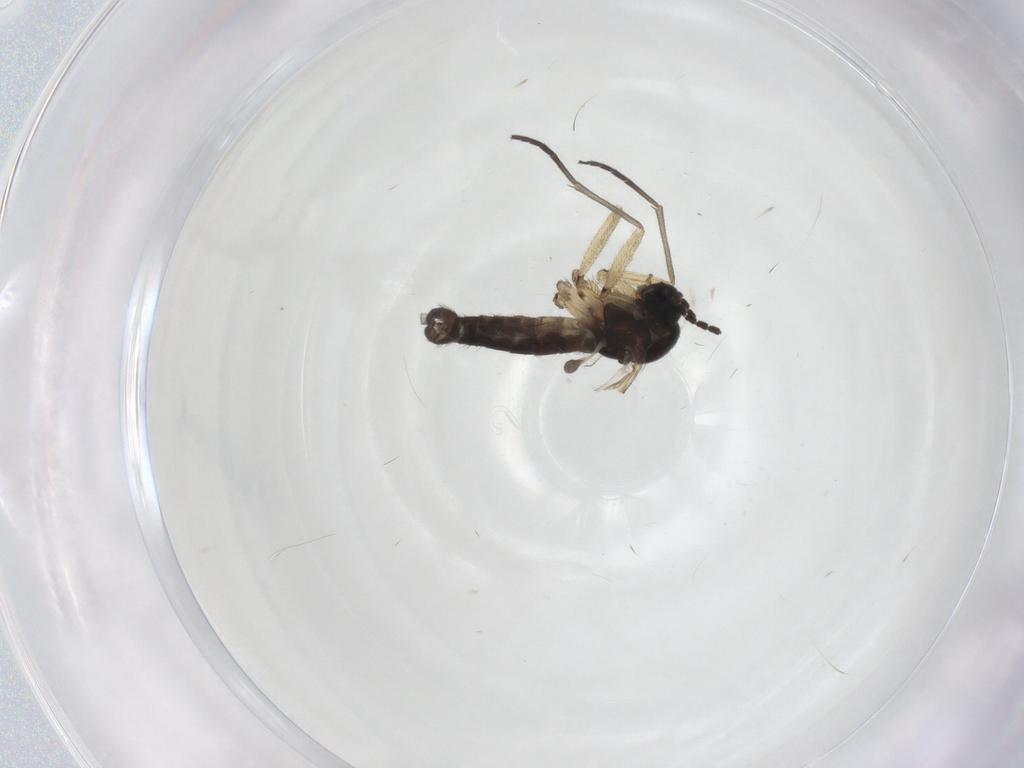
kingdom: Animalia
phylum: Arthropoda
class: Insecta
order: Diptera
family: Sciaridae
